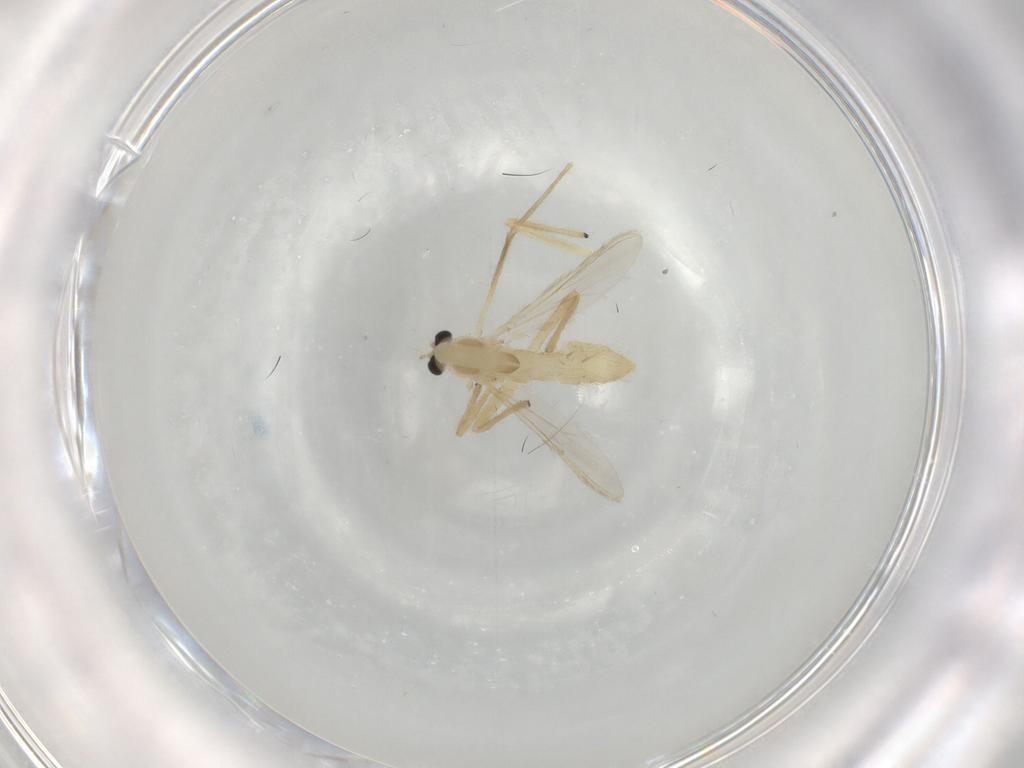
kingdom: Animalia
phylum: Arthropoda
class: Insecta
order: Diptera
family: Chironomidae
